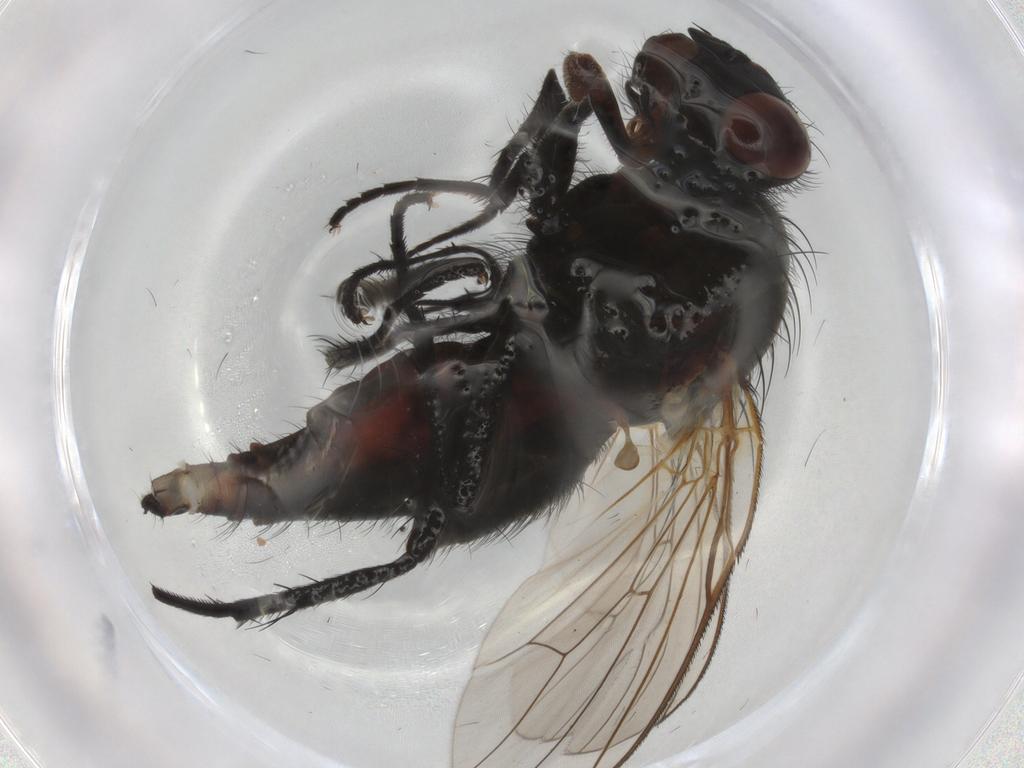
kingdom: Animalia
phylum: Arthropoda
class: Insecta
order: Diptera
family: Anthomyiidae
